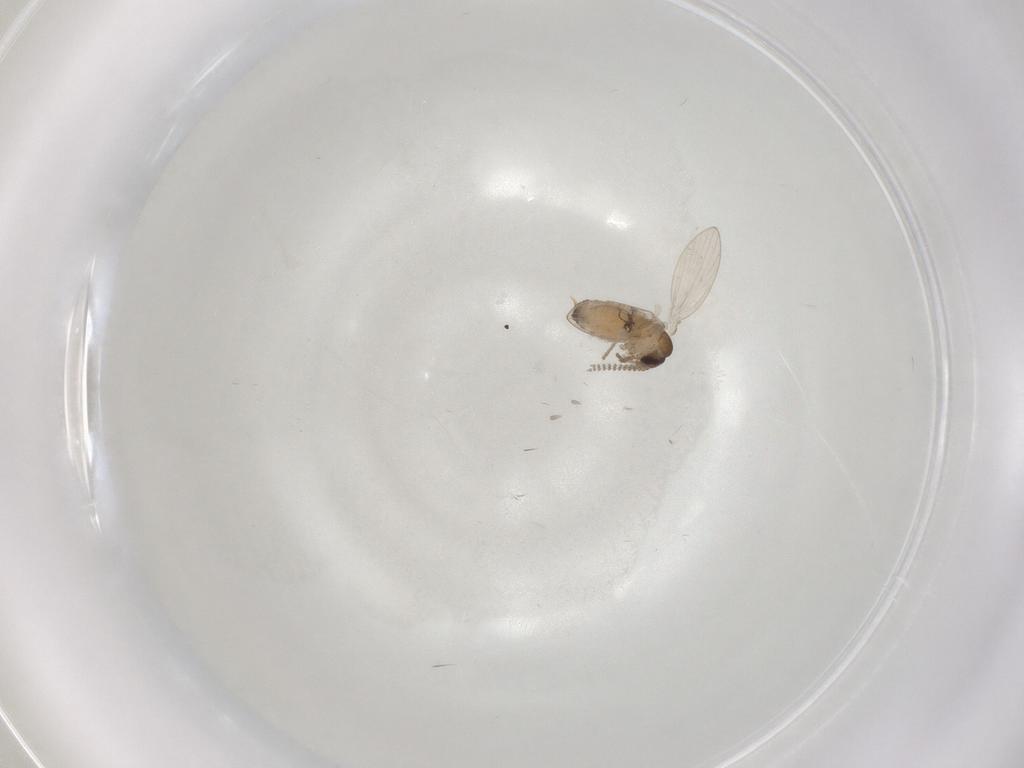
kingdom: Animalia
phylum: Arthropoda
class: Insecta
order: Diptera
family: Psychodidae
